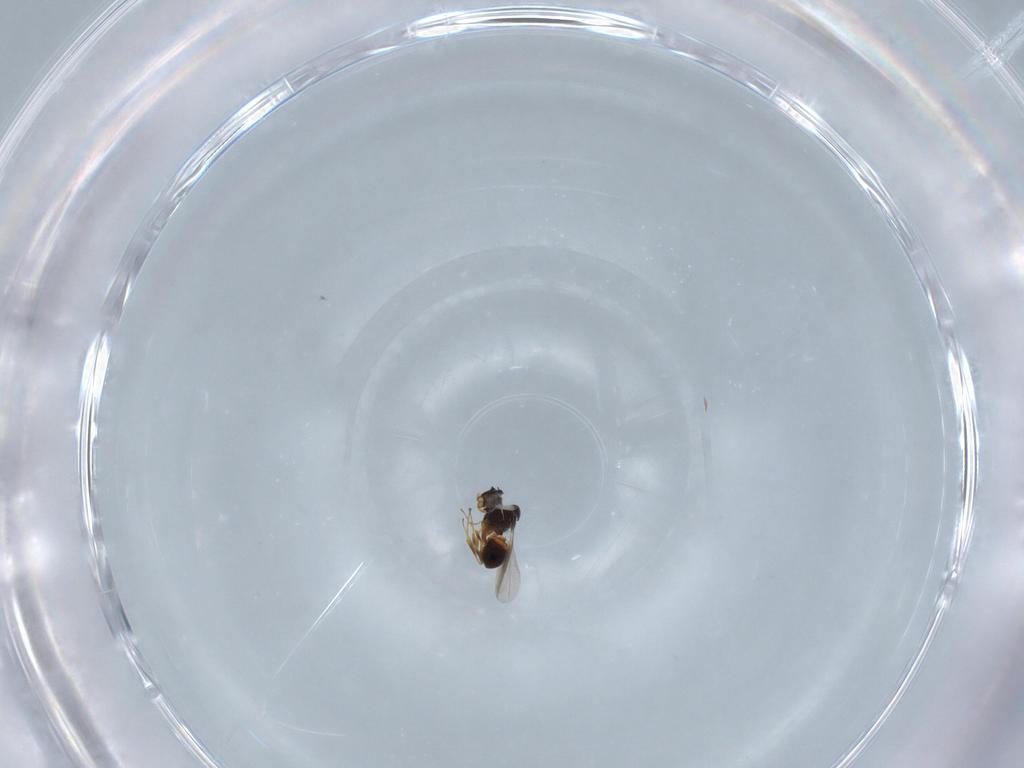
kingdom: Animalia
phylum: Arthropoda
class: Insecta
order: Hymenoptera
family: Platygastridae
